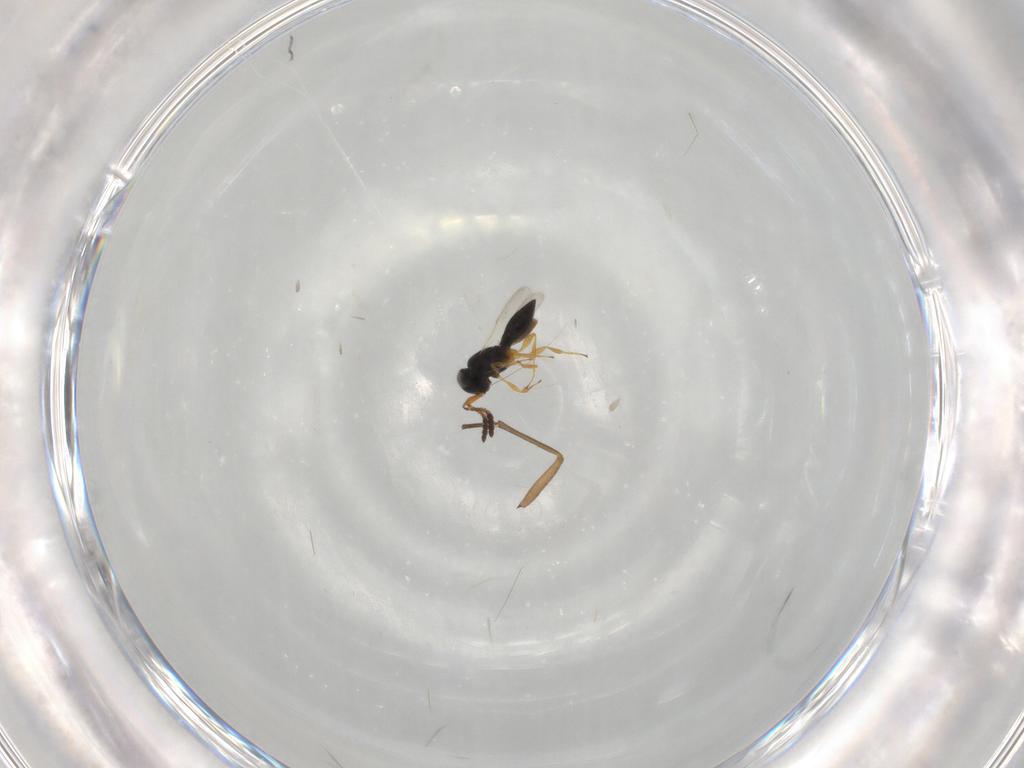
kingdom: Animalia
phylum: Arthropoda
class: Insecta
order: Hymenoptera
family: Scelionidae
